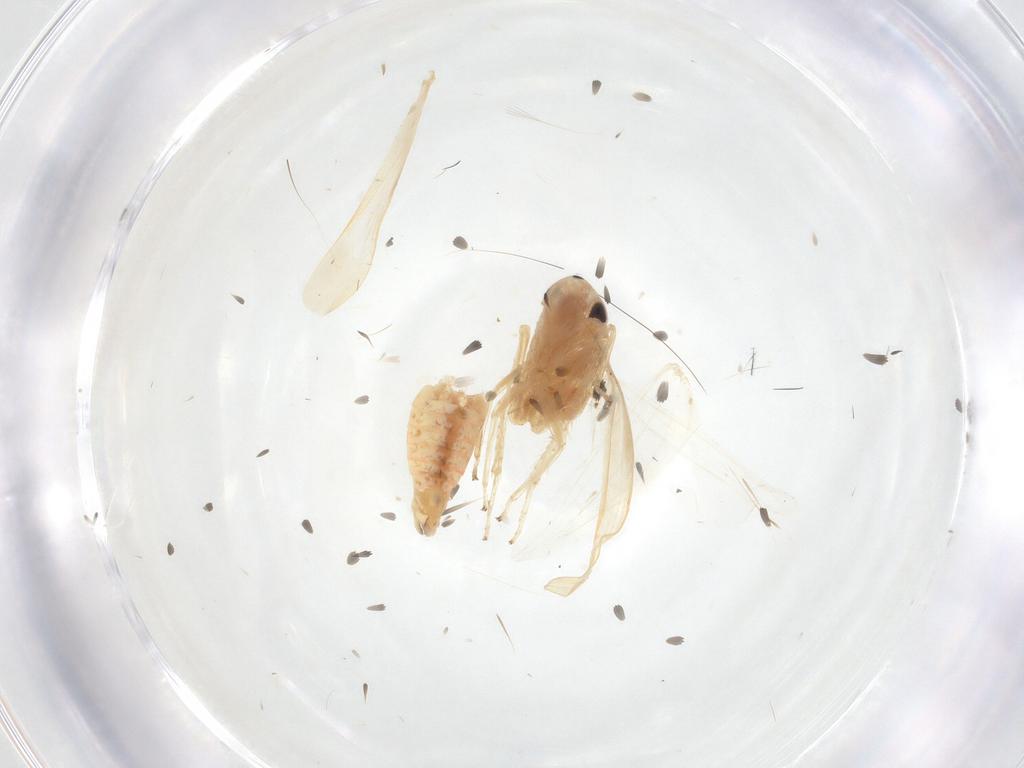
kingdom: Animalia
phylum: Arthropoda
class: Insecta
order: Hemiptera
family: Cicadellidae
